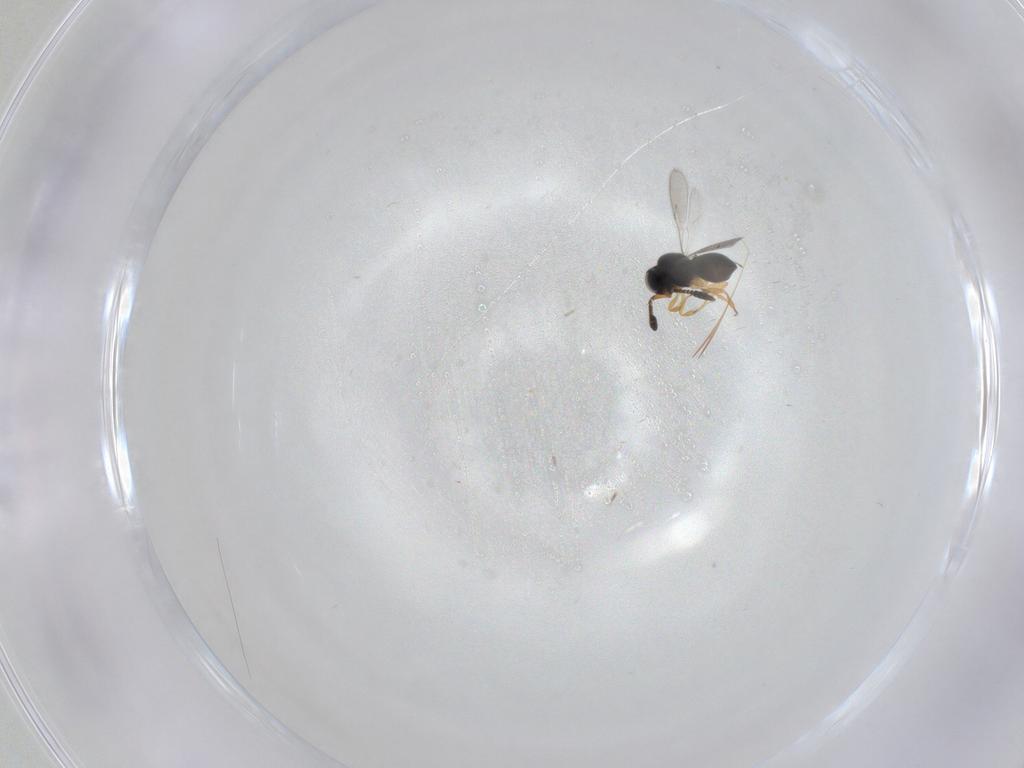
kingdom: Animalia
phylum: Arthropoda
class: Insecta
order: Hymenoptera
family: Scelionidae
